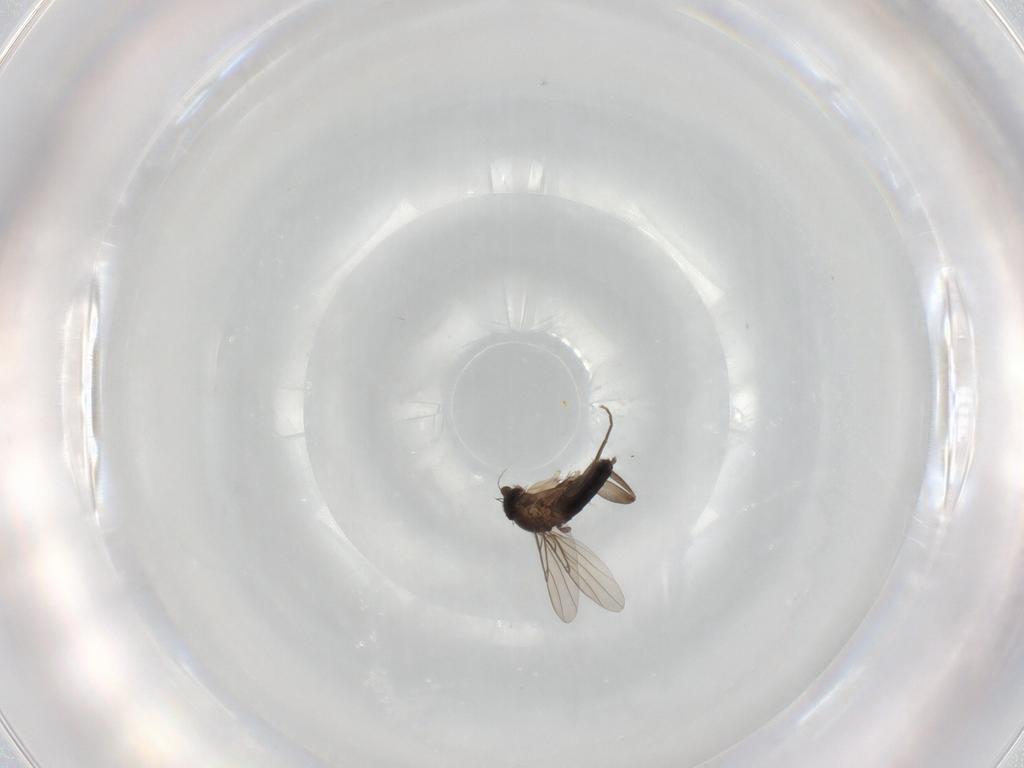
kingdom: Animalia
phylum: Arthropoda
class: Insecta
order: Diptera
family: Phoridae
